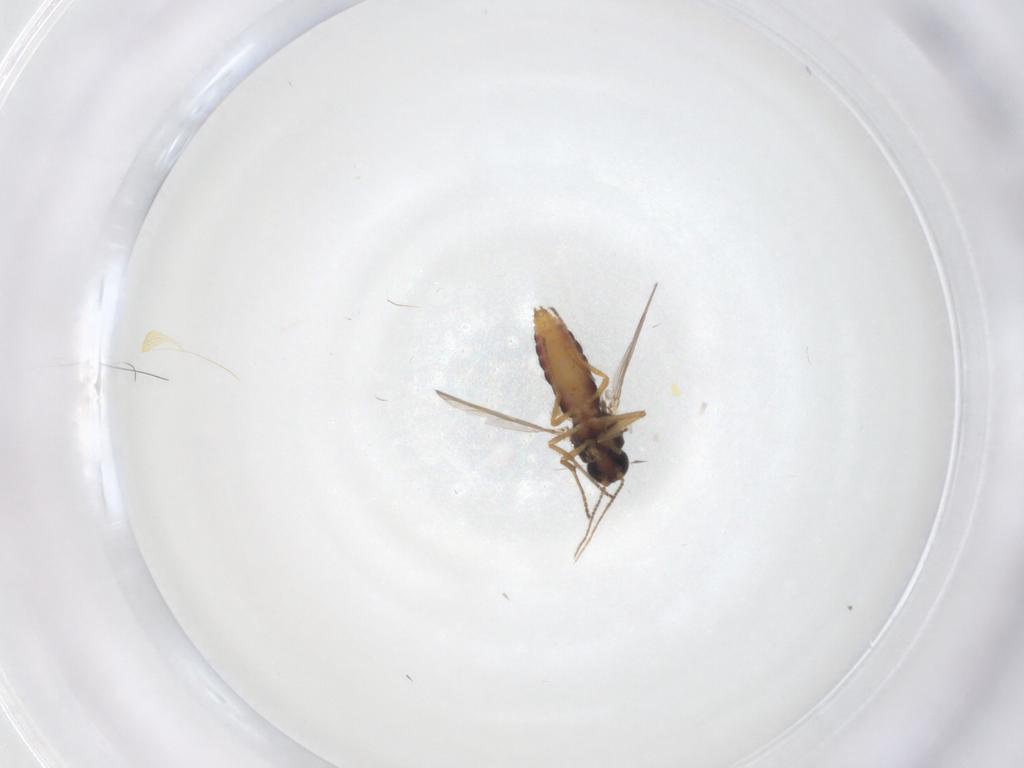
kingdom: Animalia
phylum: Arthropoda
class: Insecta
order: Diptera
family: Ceratopogonidae
